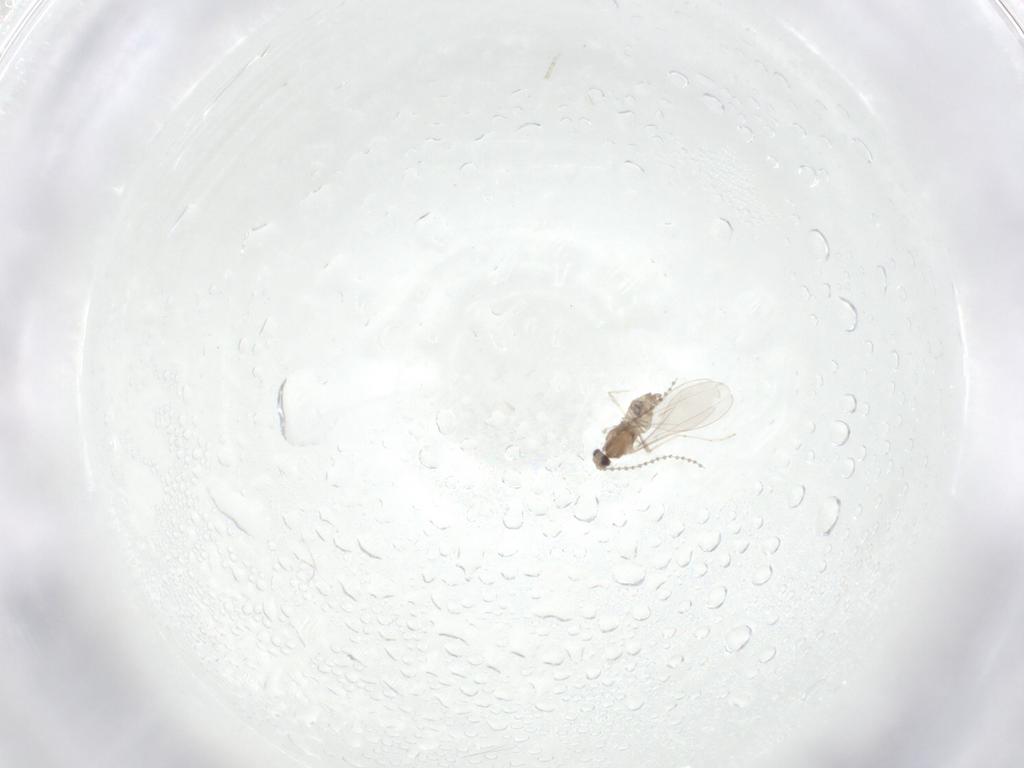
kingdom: Animalia
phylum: Arthropoda
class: Insecta
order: Diptera
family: Cecidomyiidae
